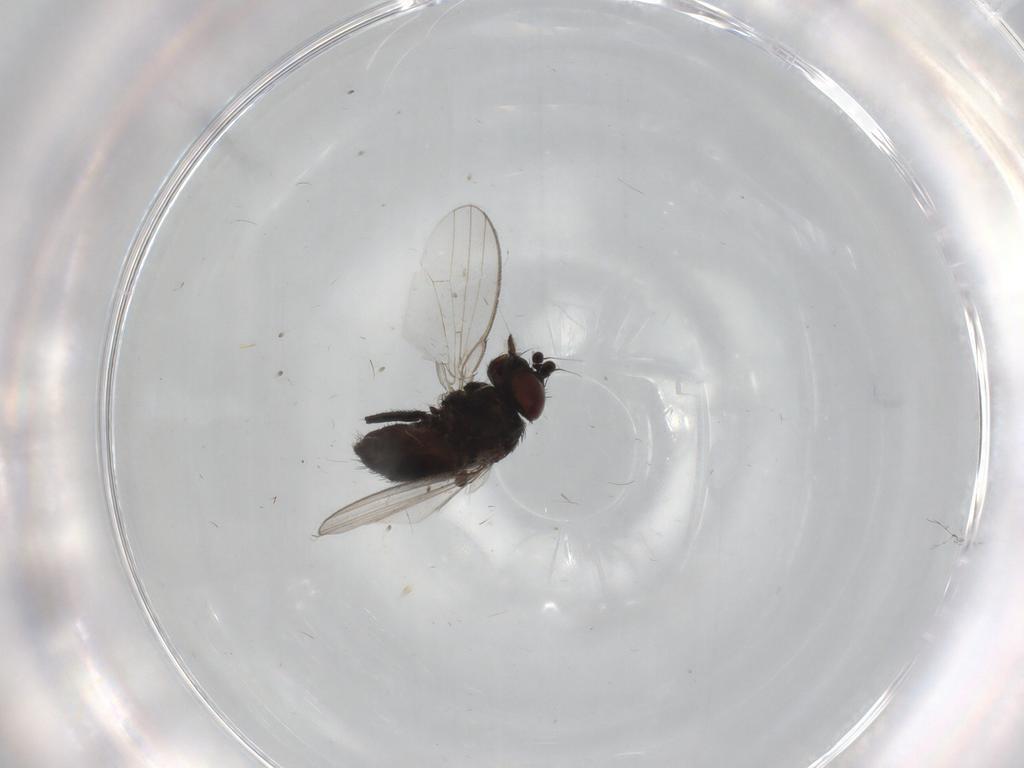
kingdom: Animalia
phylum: Arthropoda
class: Insecta
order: Diptera
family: Cecidomyiidae
